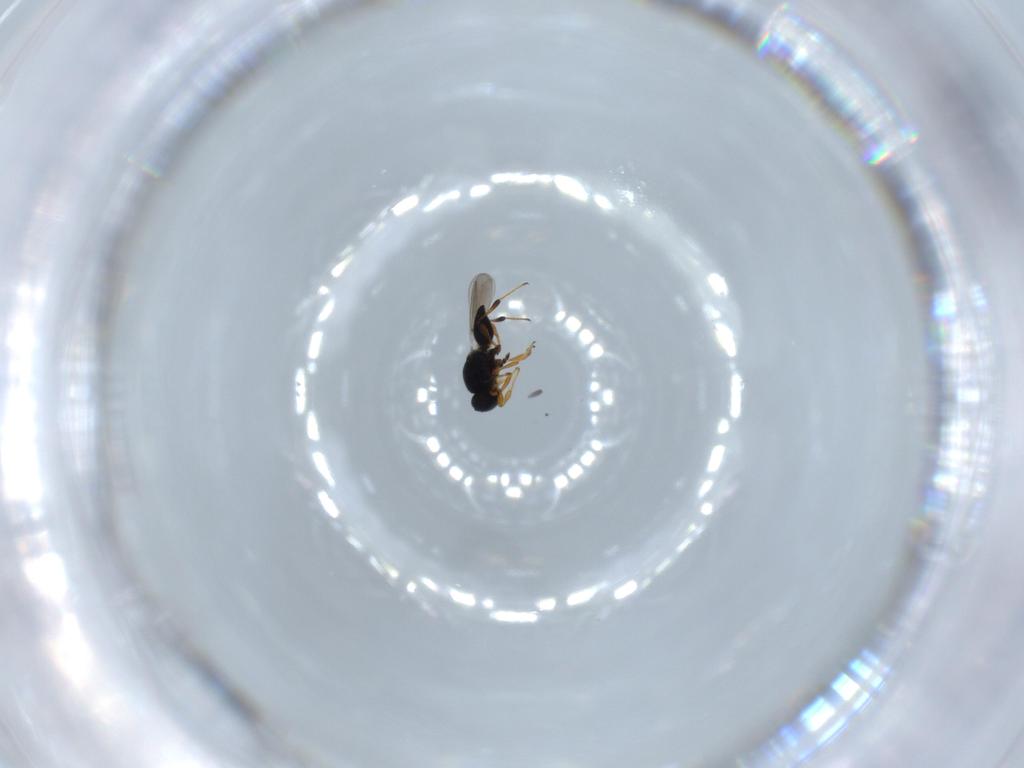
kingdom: Animalia
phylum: Arthropoda
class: Insecta
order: Hymenoptera
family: Platygastridae
